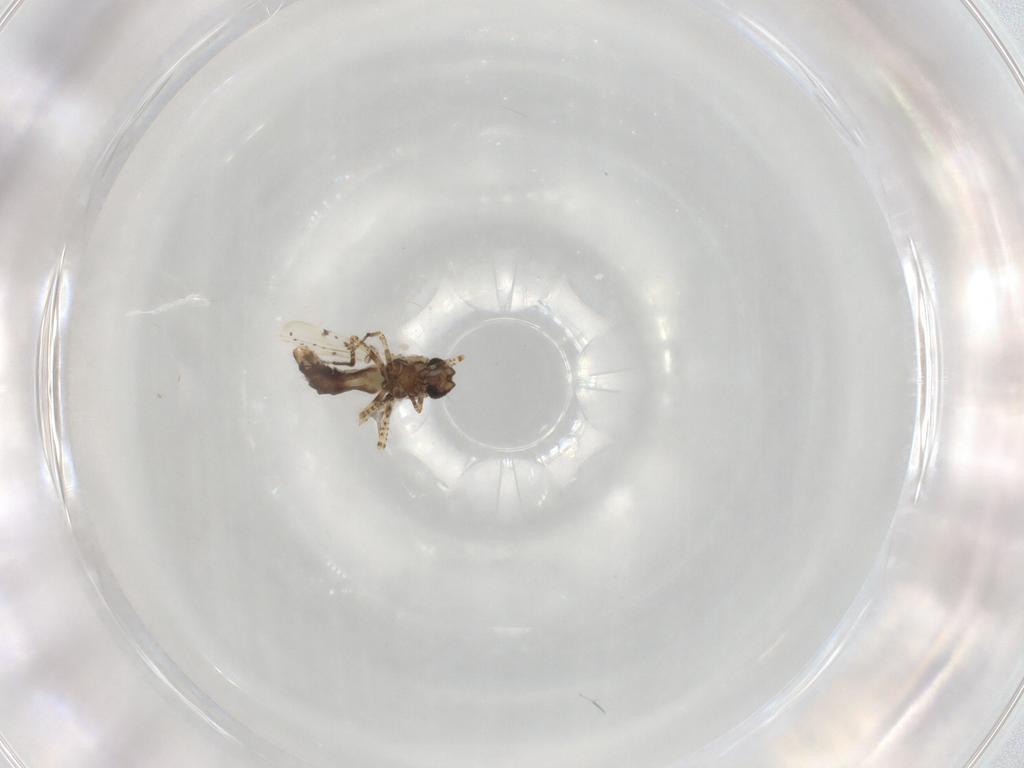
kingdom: Animalia
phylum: Arthropoda
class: Insecta
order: Diptera
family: Ceratopogonidae
